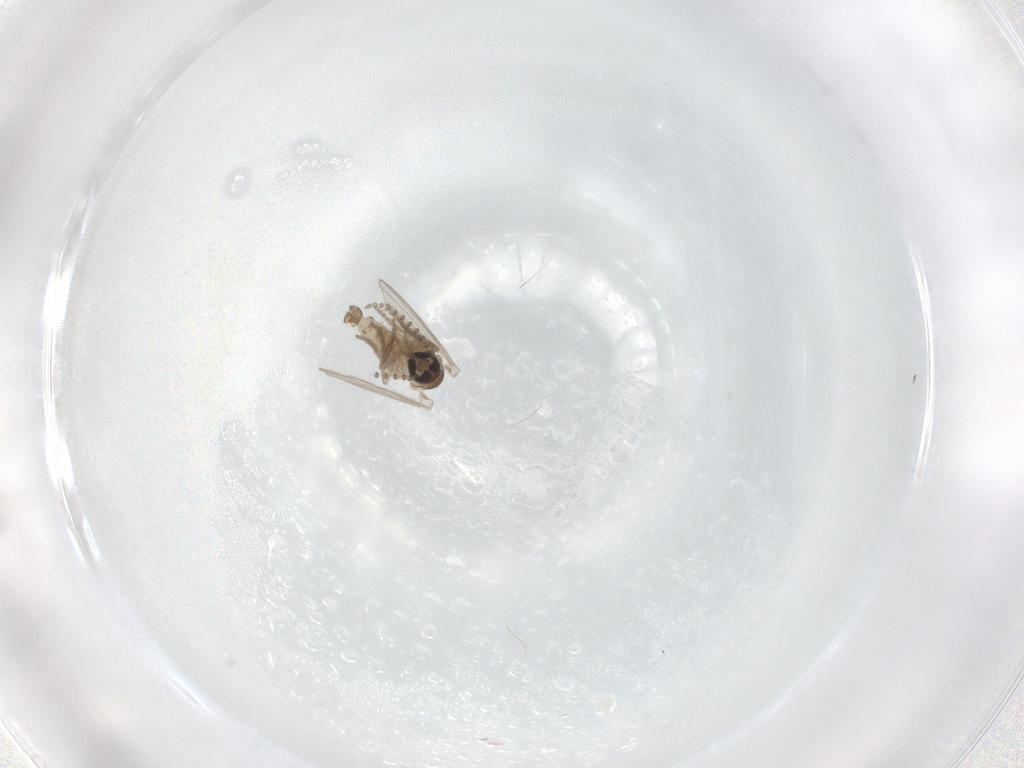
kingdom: Animalia
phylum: Arthropoda
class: Insecta
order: Diptera
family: Psychodidae
